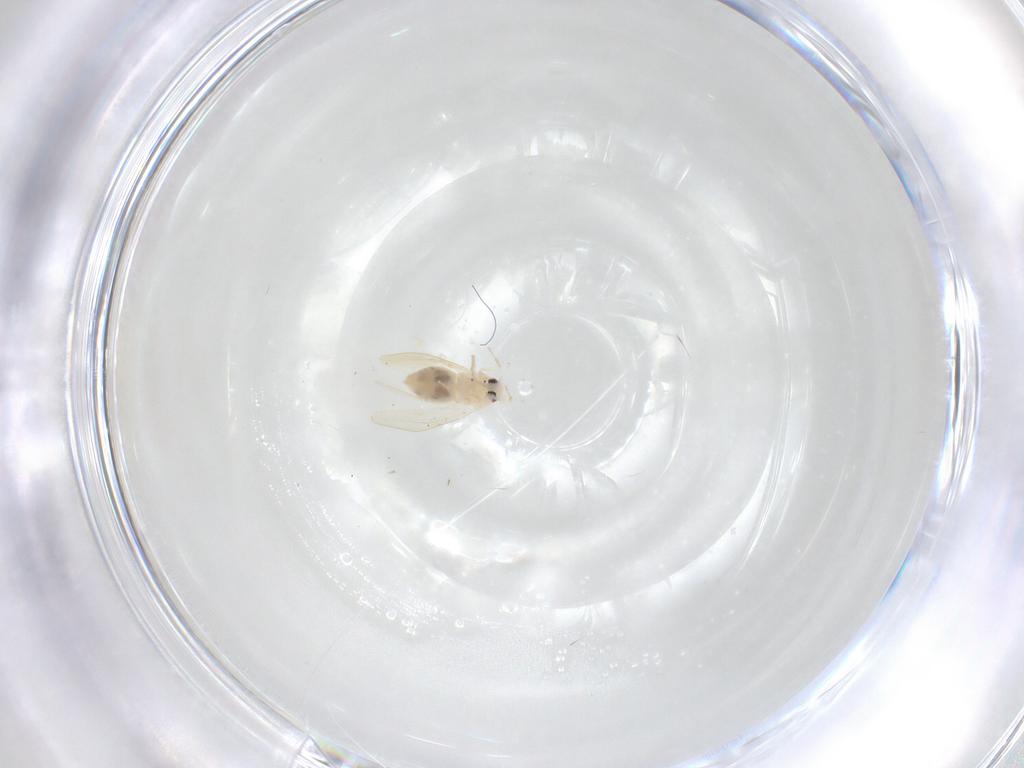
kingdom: Animalia
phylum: Arthropoda
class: Insecta
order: Hemiptera
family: Aleyrodidae
